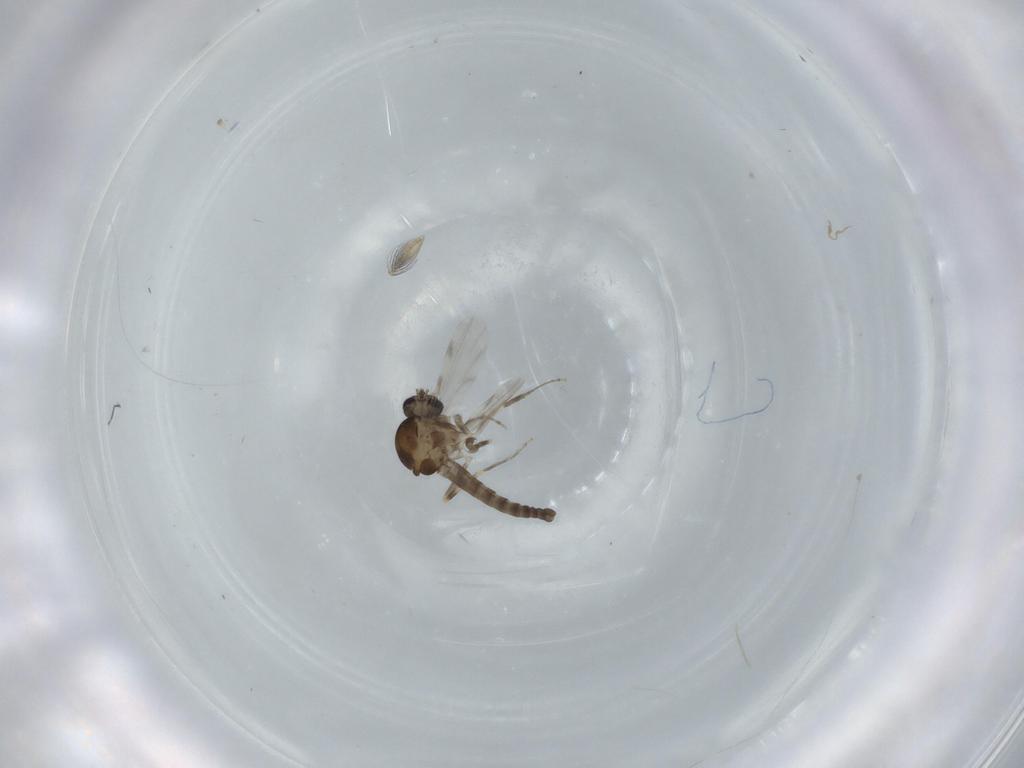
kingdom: Animalia
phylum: Arthropoda
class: Insecta
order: Diptera
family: Ceratopogonidae
